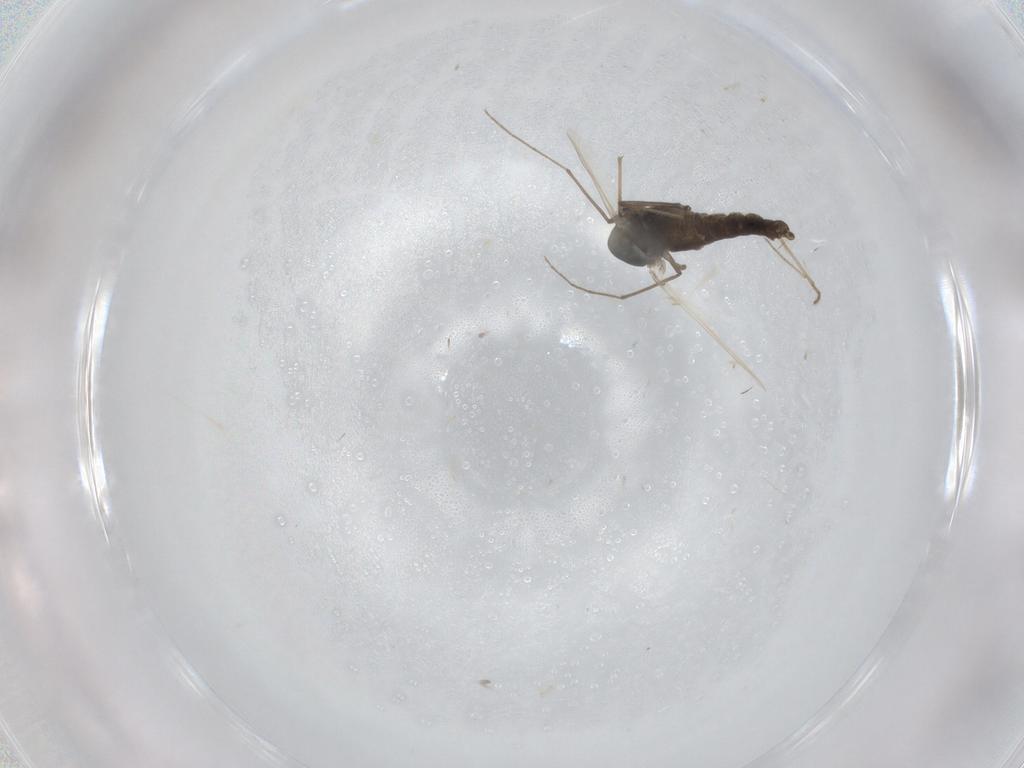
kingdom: Animalia
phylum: Arthropoda
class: Insecta
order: Diptera
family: Chironomidae
